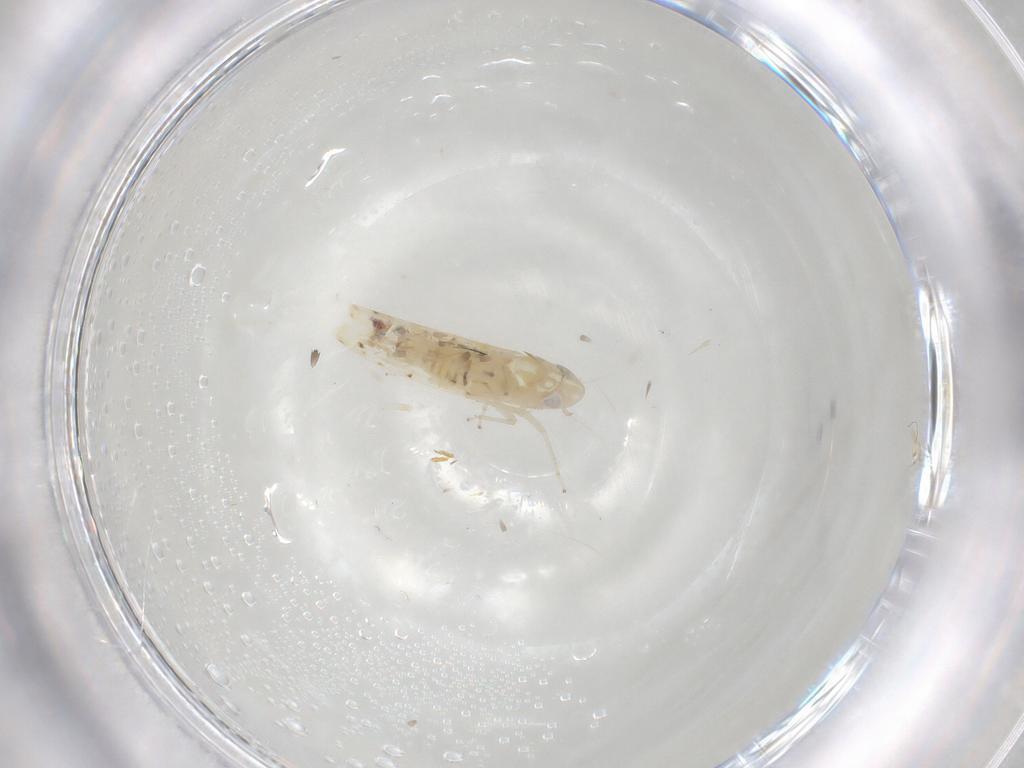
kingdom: Animalia
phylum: Arthropoda
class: Insecta
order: Hemiptera
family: Cicadellidae
